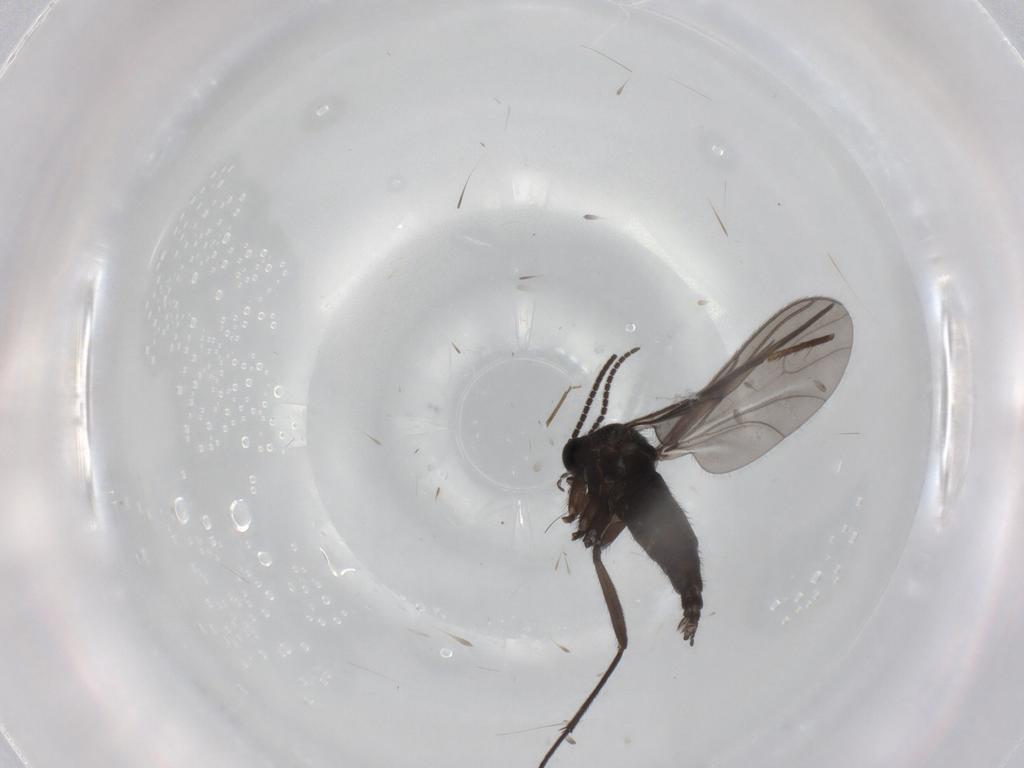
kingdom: Animalia
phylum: Arthropoda
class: Insecta
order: Diptera
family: Sciaridae
